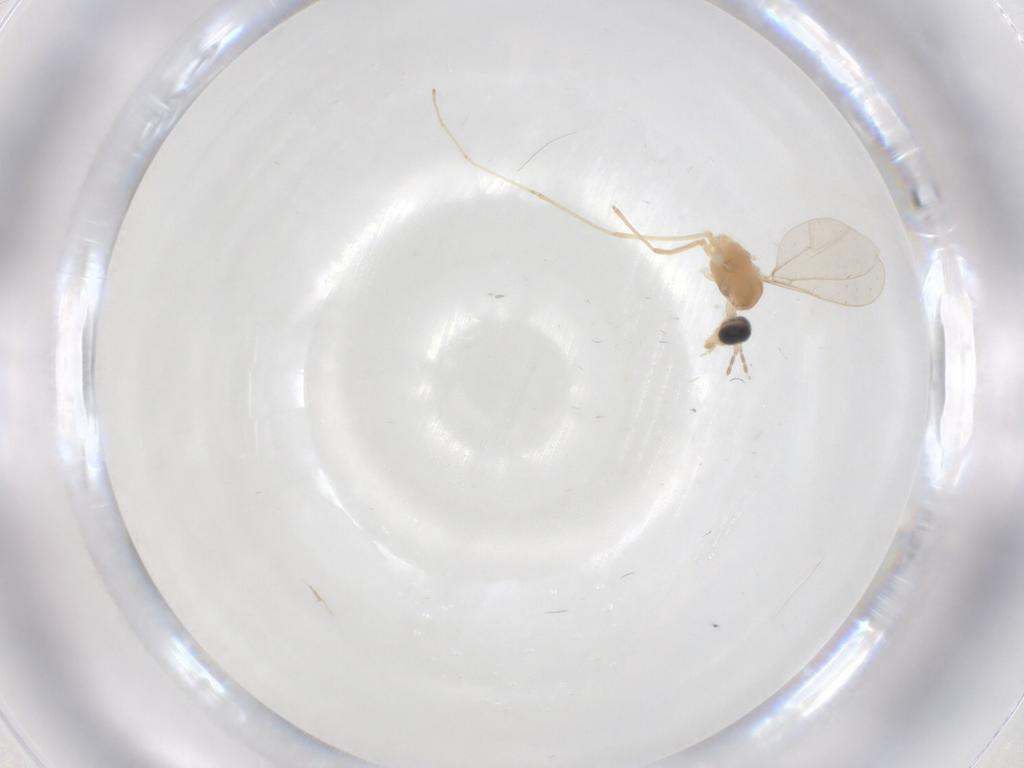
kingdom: Animalia
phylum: Arthropoda
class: Insecta
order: Diptera
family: Cecidomyiidae
